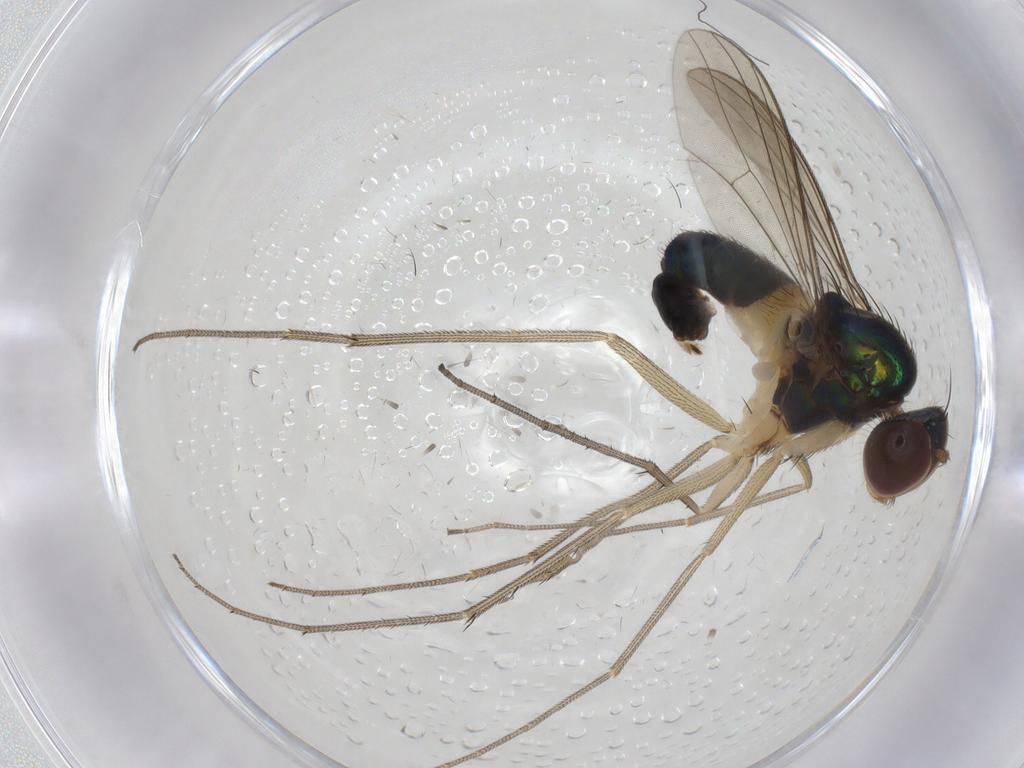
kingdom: Animalia
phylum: Arthropoda
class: Insecta
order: Diptera
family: Dolichopodidae
